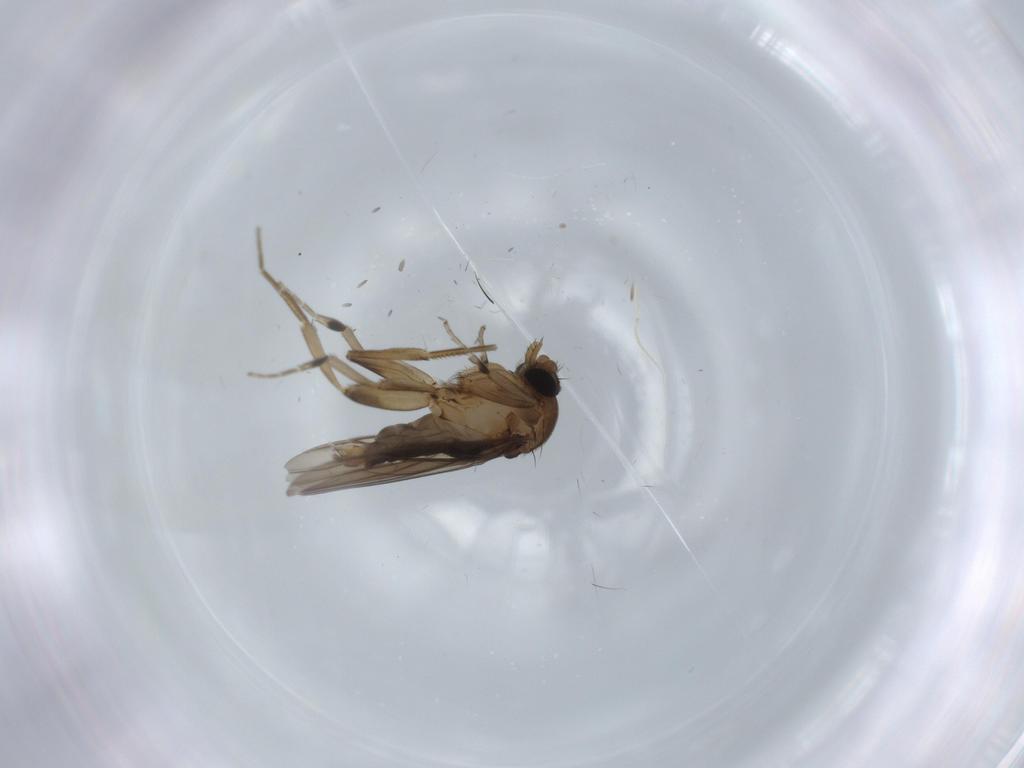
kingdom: Animalia
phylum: Arthropoda
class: Insecta
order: Diptera
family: Phoridae
